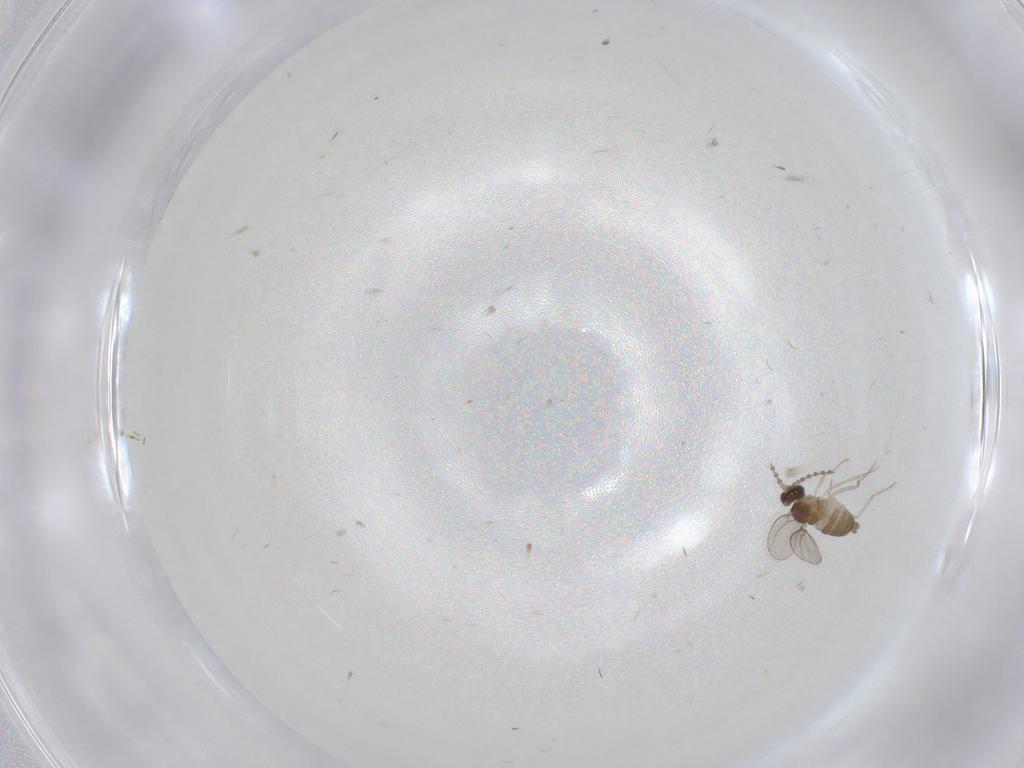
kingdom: Animalia
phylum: Arthropoda
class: Insecta
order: Diptera
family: Cecidomyiidae
